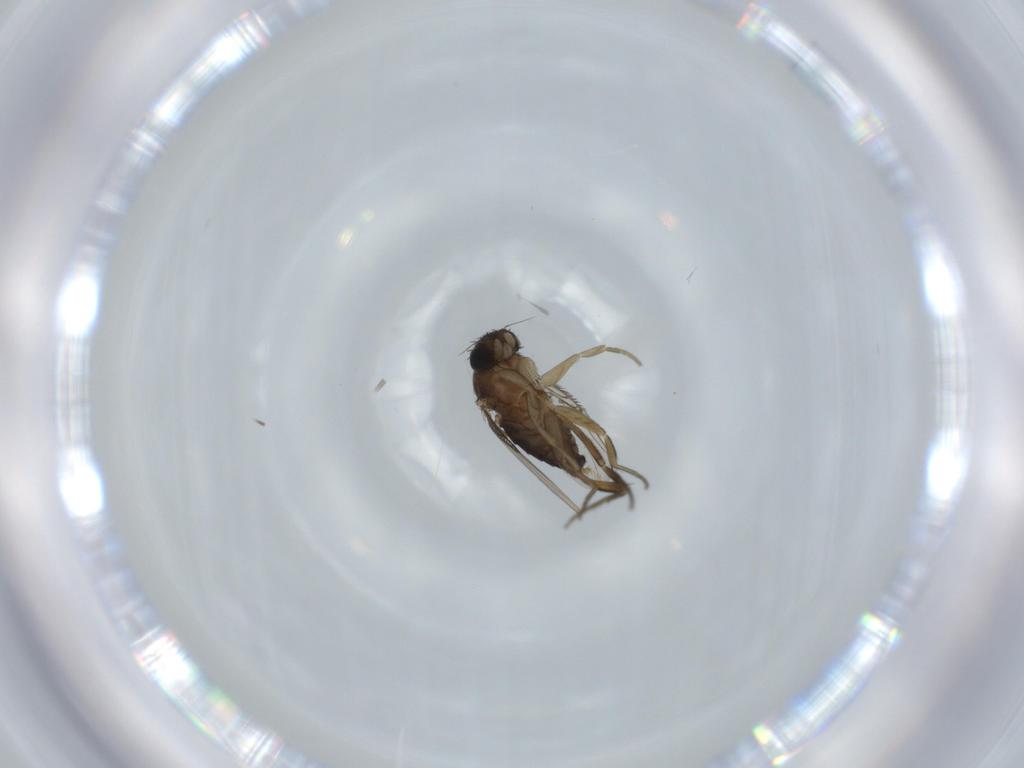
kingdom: Animalia
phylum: Arthropoda
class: Insecta
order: Diptera
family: Phoridae
